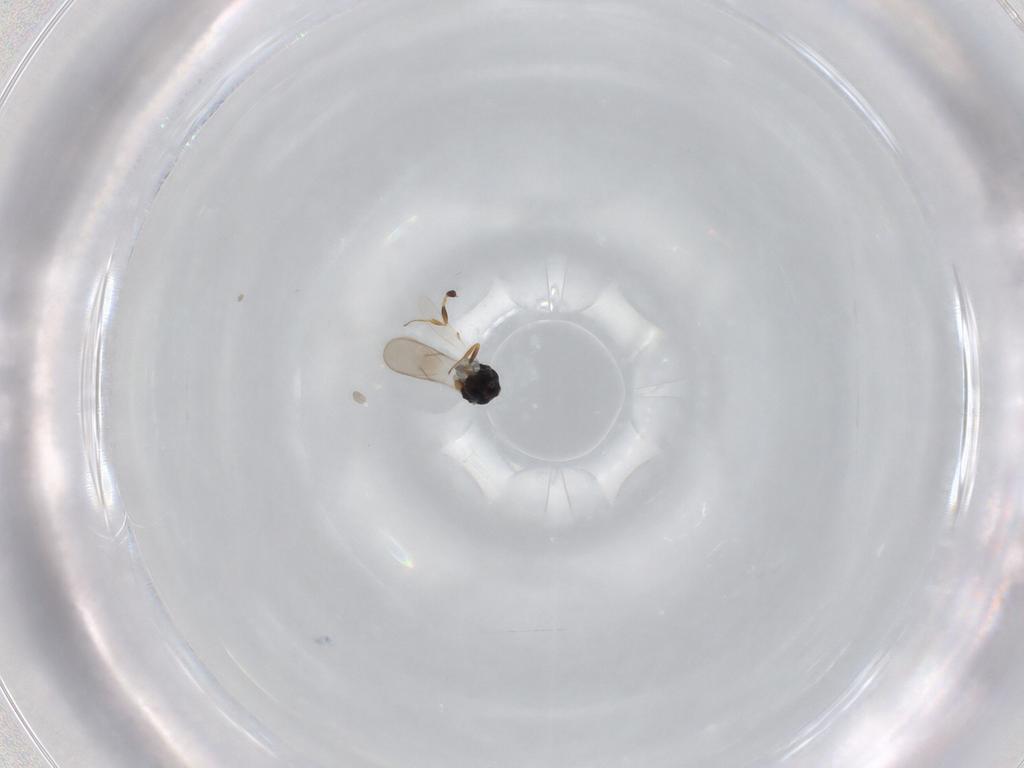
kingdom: Animalia
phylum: Arthropoda
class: Insecta
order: Hymenoptera
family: Scelionidae
